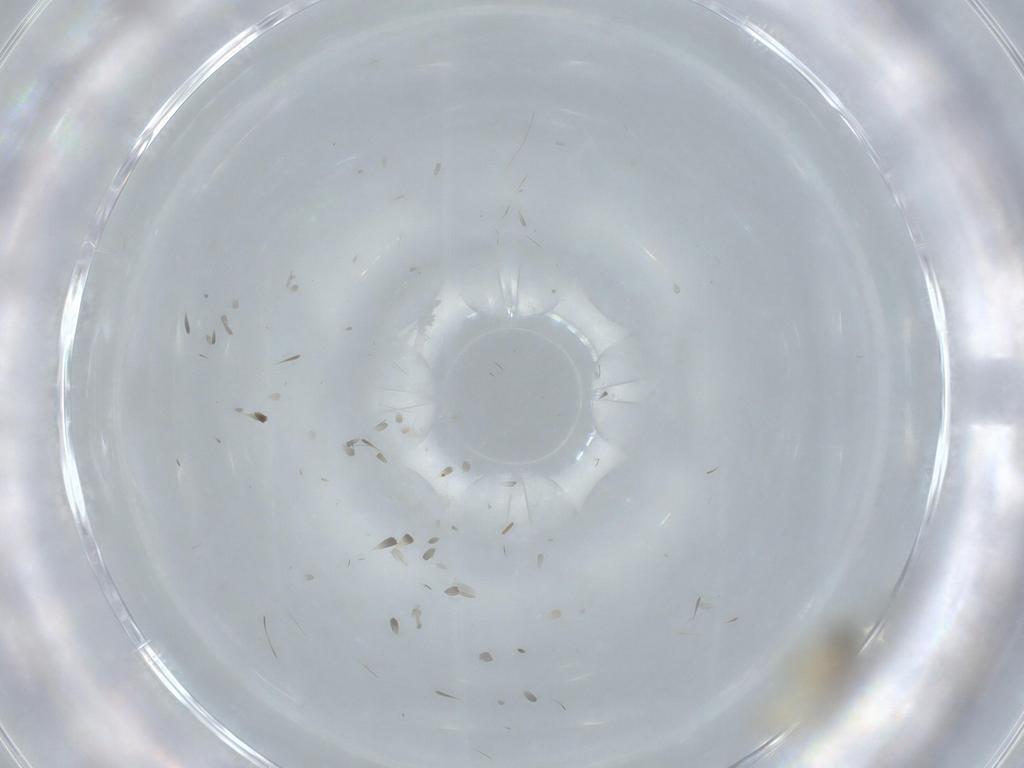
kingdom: Animalia
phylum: Arthropoda
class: Insecta
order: Diptera
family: Cecidomyiidae
